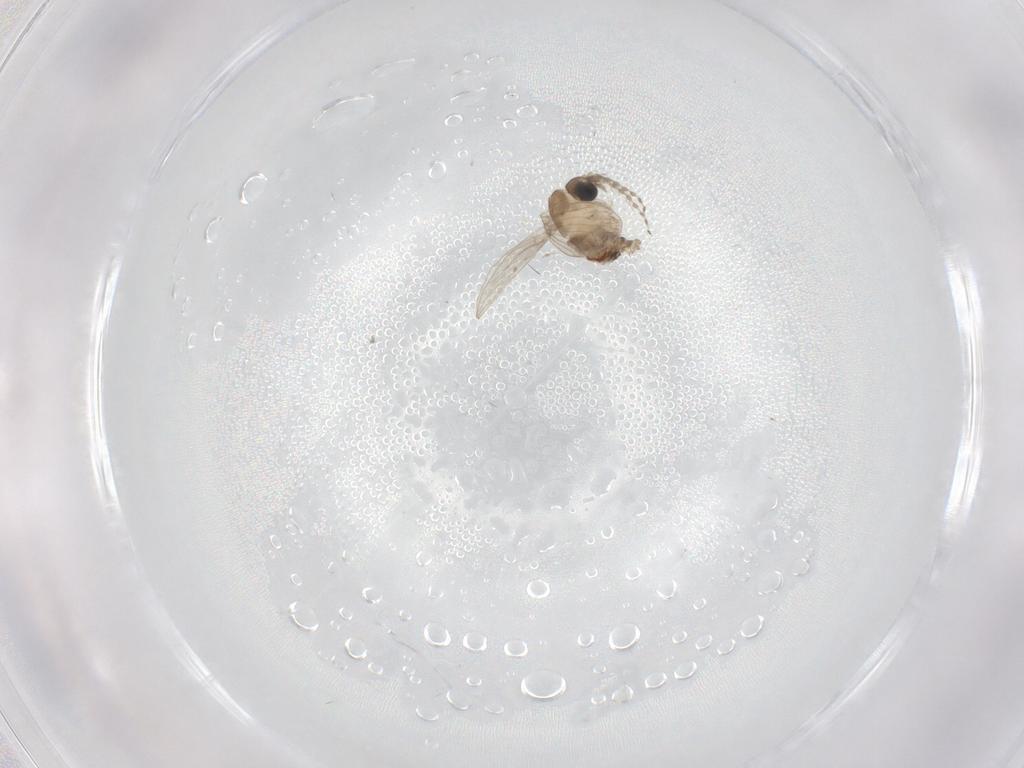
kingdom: Animalia
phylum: Arthropoda
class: Insecta
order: Diptera
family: Psychodidae
